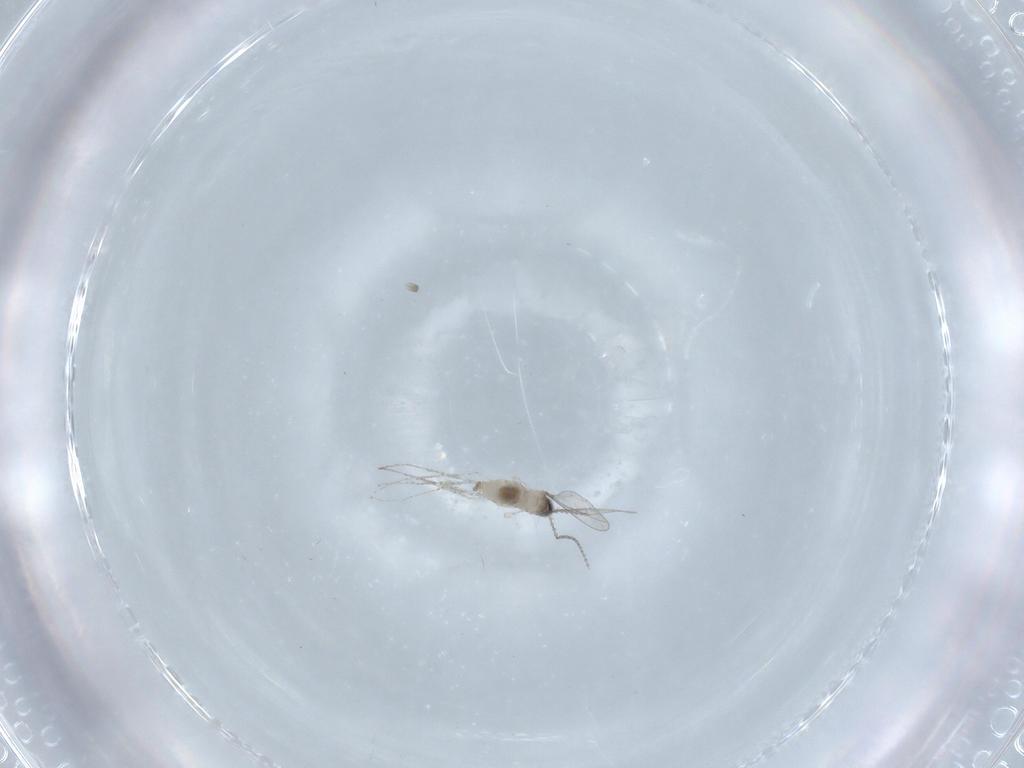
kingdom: Animalia
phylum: Arthropoda
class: Insecta
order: Diptera
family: Cecidomyiidae
